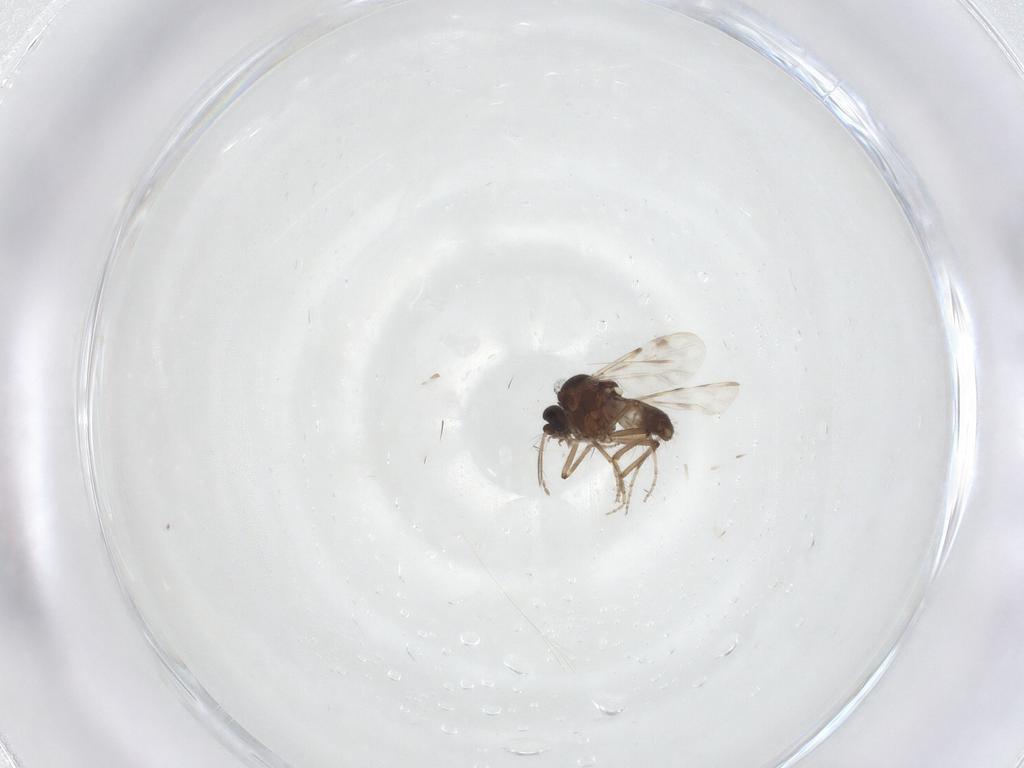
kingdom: Animalia
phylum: Arthropoda
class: Insecta
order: Diptera
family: Ceratopogonidae
